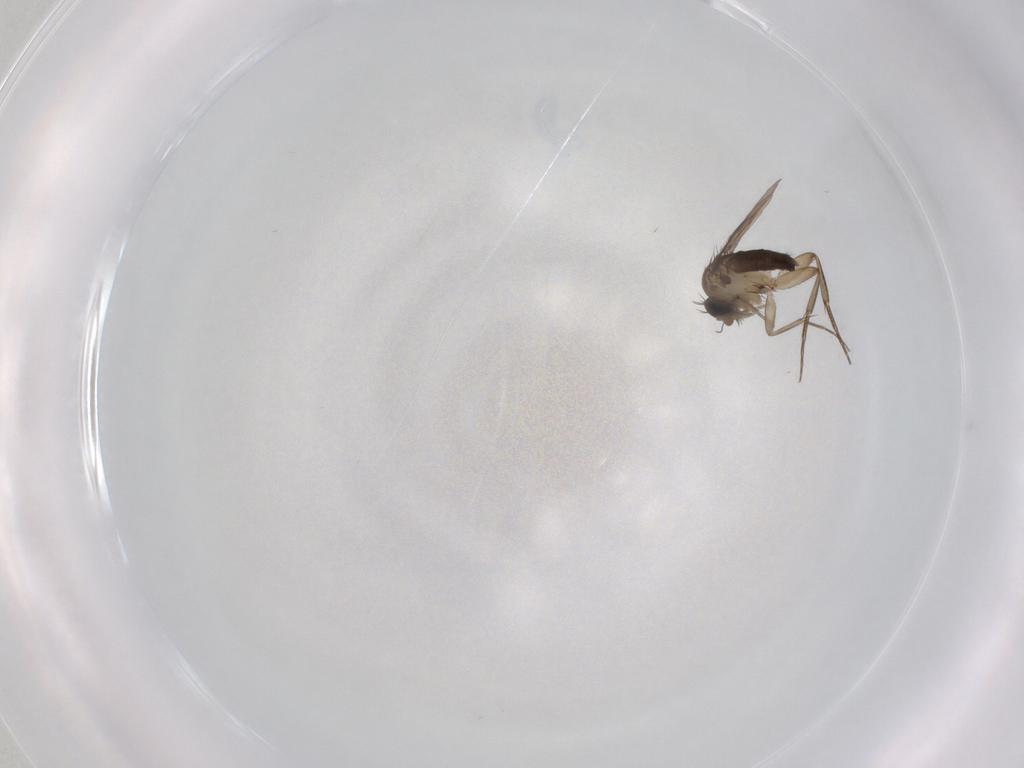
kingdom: Animalia
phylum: Arthropoda
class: Insecta
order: Diptera
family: Phoridae
